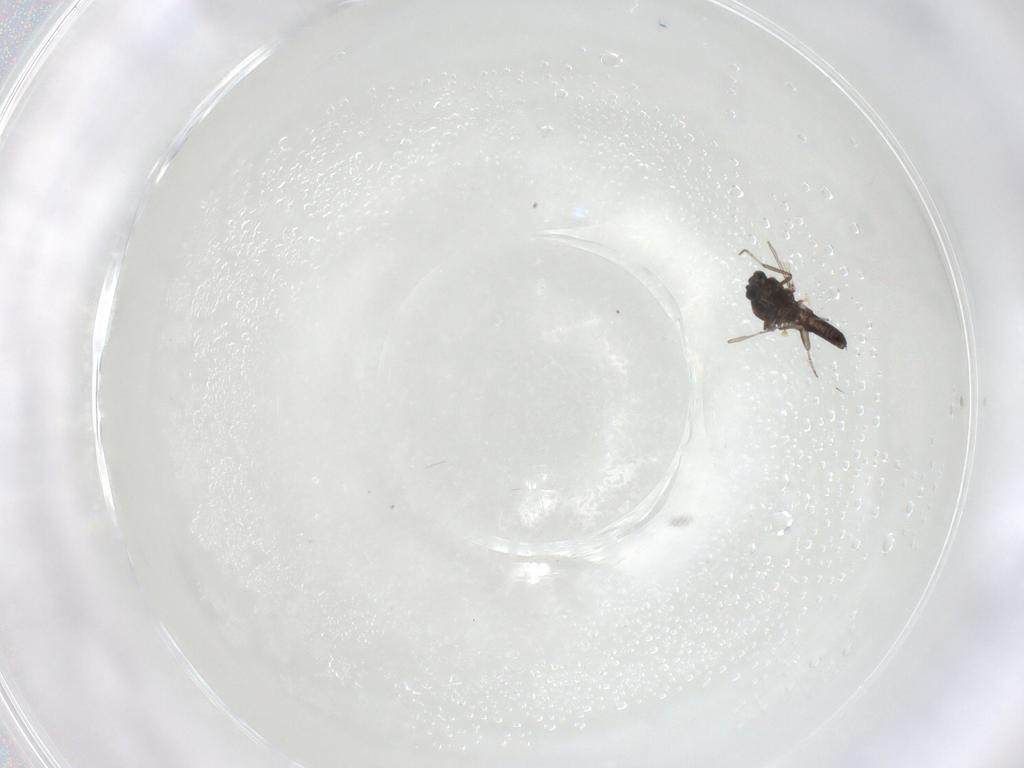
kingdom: Animalia
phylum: Arthropoda
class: Insecta
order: Diptera
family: Ceratopogonidae
